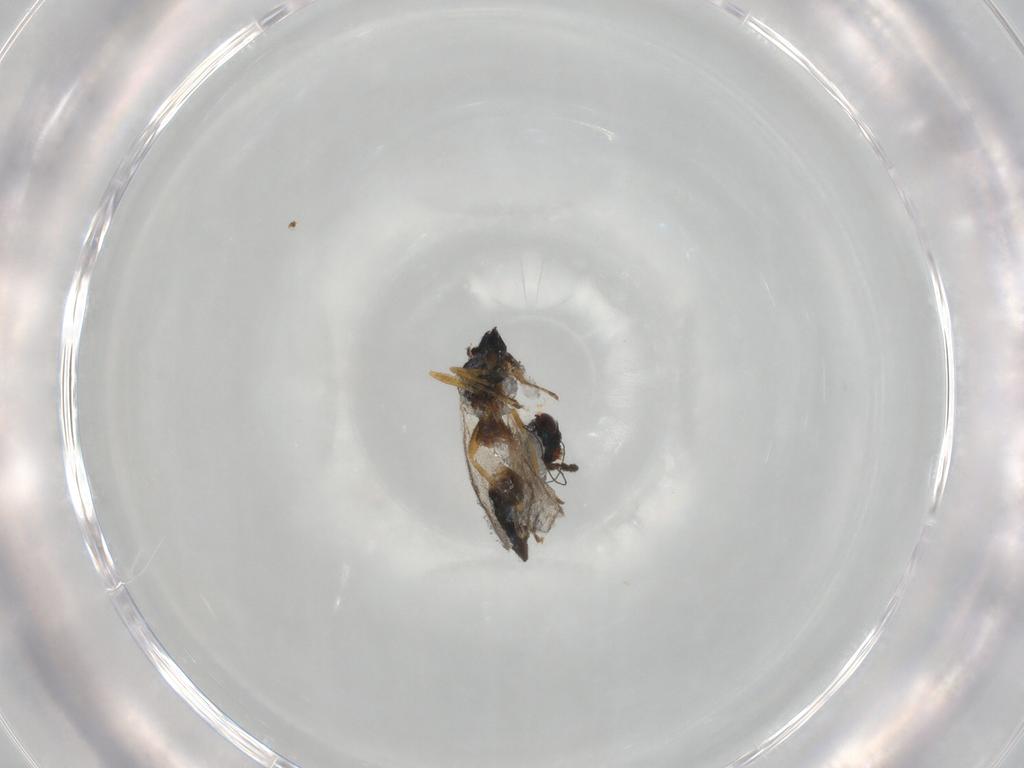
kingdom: Animalia
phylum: Arthropoda
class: Insecta
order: Hymenoptera
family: Eulophidae
